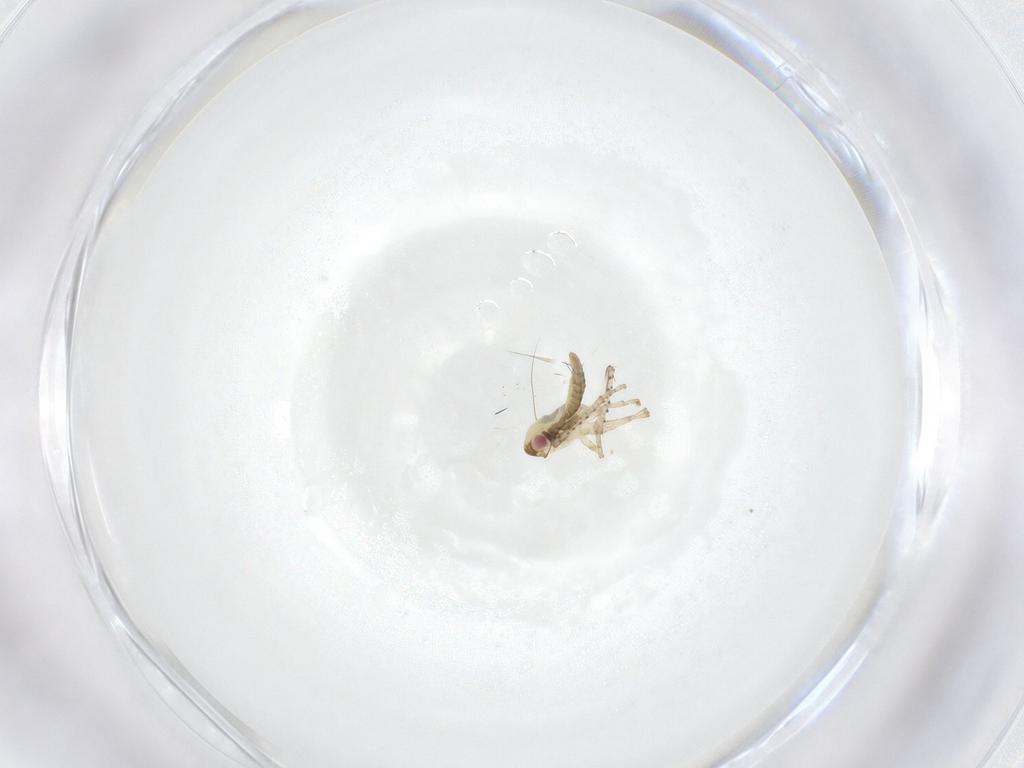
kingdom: Animalia
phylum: Arthropoda
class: Insecta
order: Hemiptera
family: Cicadellidae
